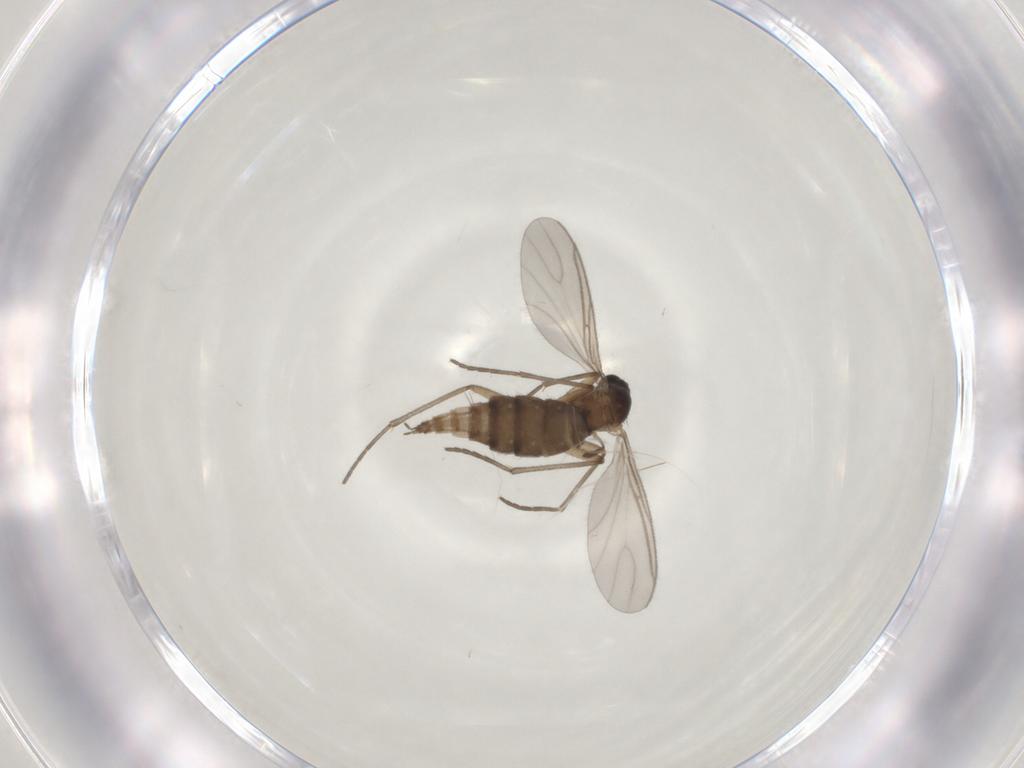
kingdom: Animalia
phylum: Arthropoda
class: Insecta
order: Diptera
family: Sciaridae
